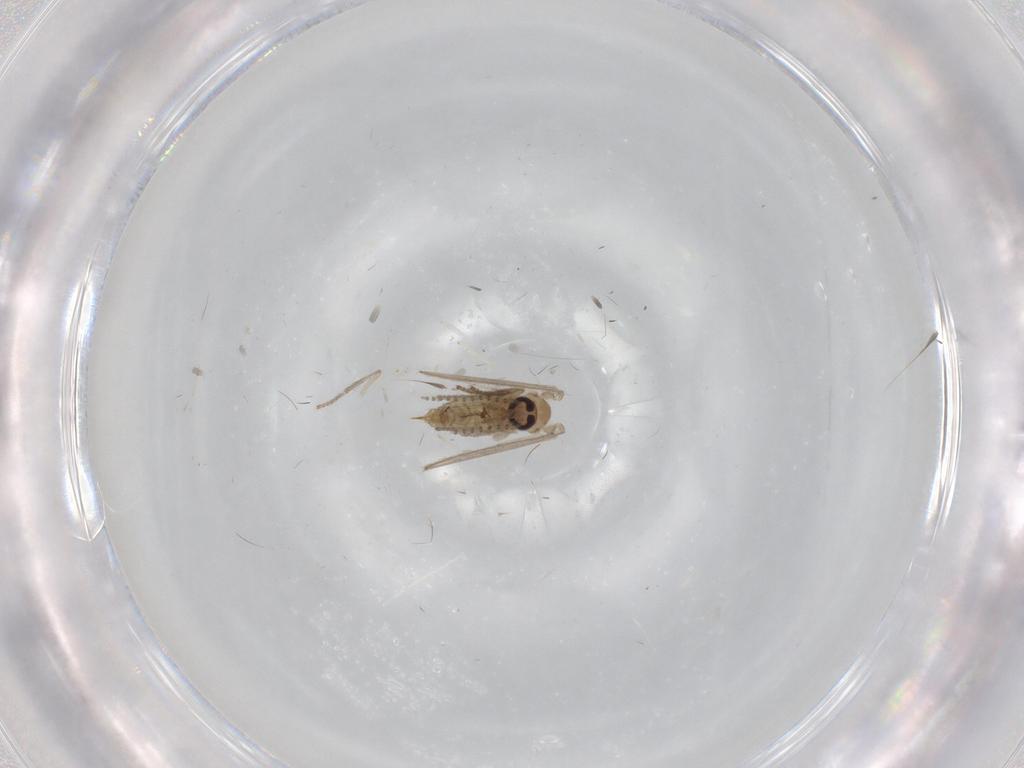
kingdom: Animalia
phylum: Arthropoda
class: Insecta
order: Diptera
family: Psychodidae
